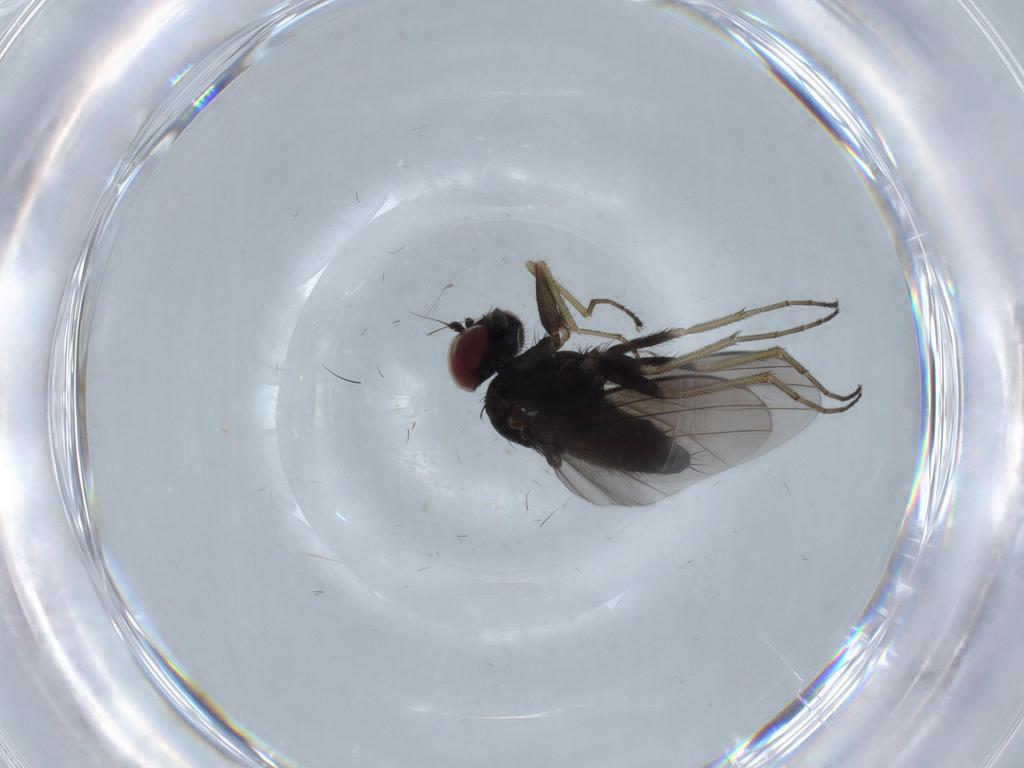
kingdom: Animalia
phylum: Arthropoda
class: Insecta
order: Diptera
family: Dolichopodidae
